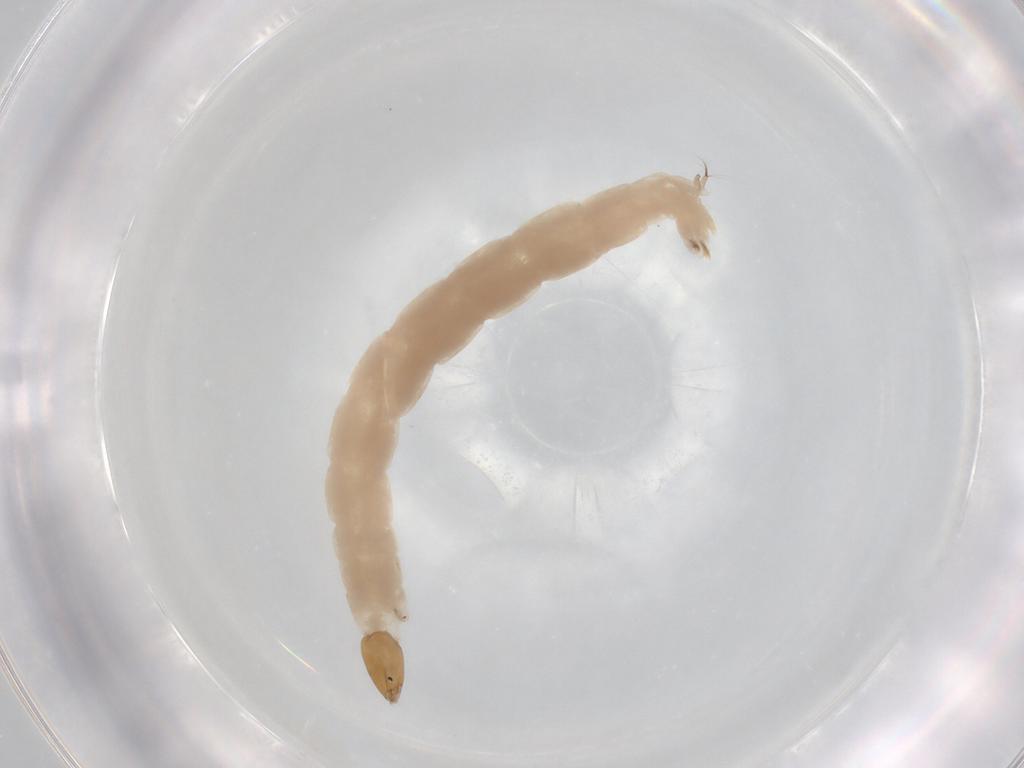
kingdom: Animalia
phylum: Arthropoda
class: Insecta
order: Diptera
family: Chironomidae
